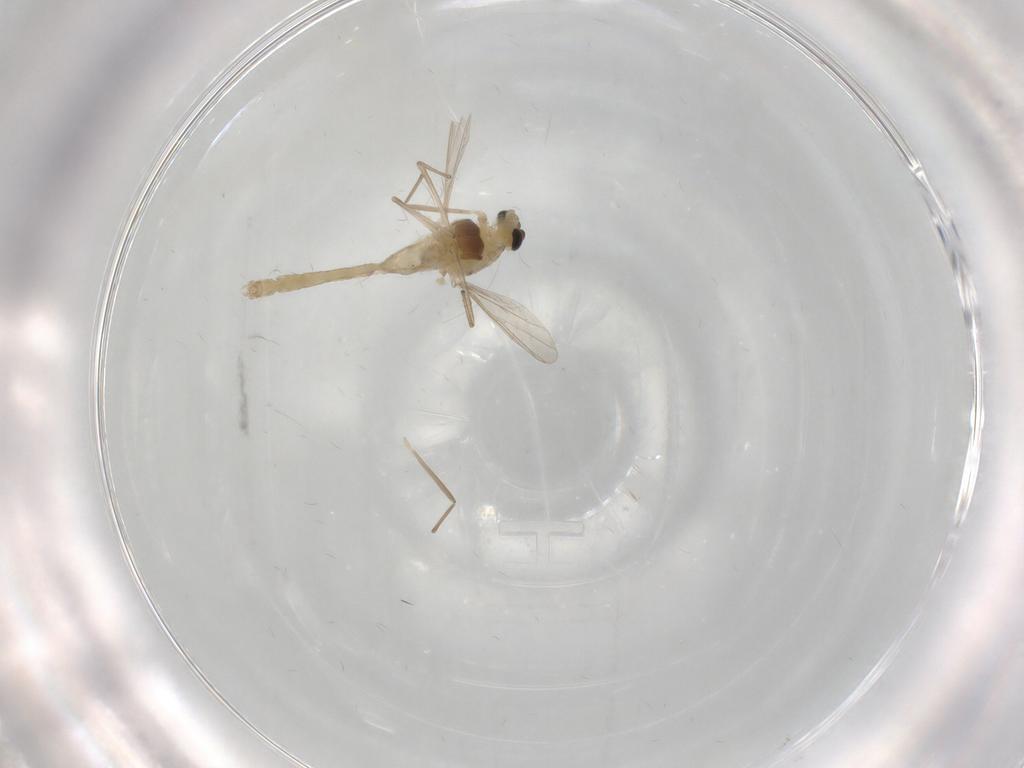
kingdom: Animalia
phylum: Arthropoda
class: Insecta
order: Diptera
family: Chironomidae
